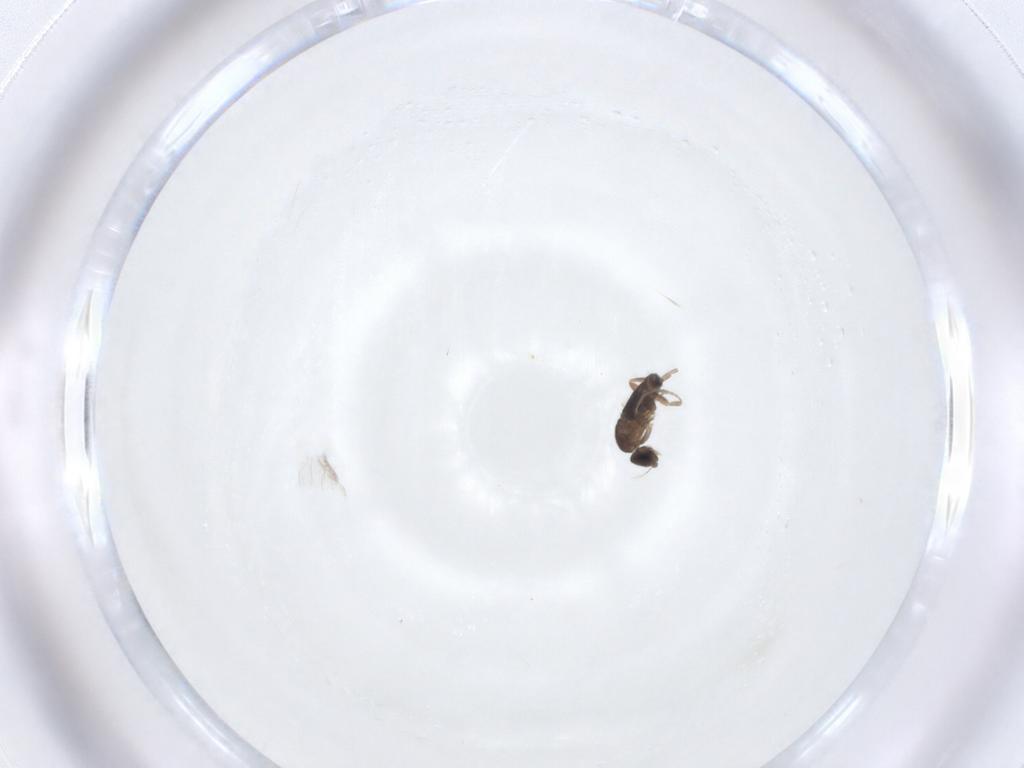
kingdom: Animalia
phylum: Arthropoda
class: Insecta
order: Diptera
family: Phoridae
